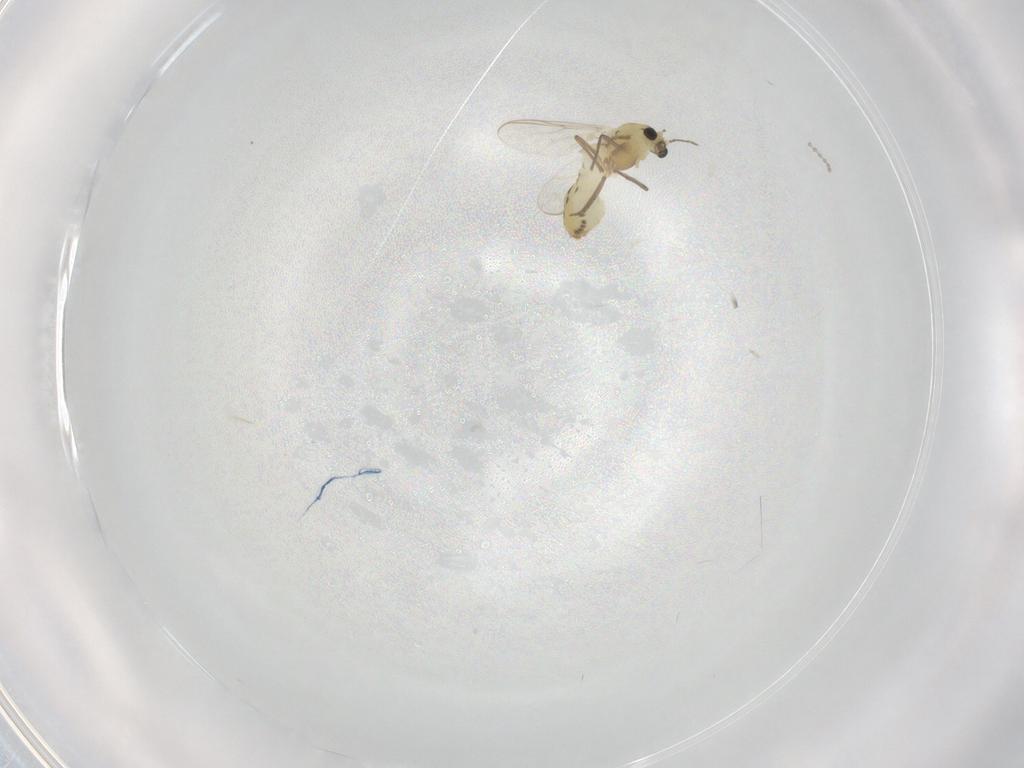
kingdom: Animalia
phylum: Arthropoda
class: Insecta
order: Diptera
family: Chironomidae
